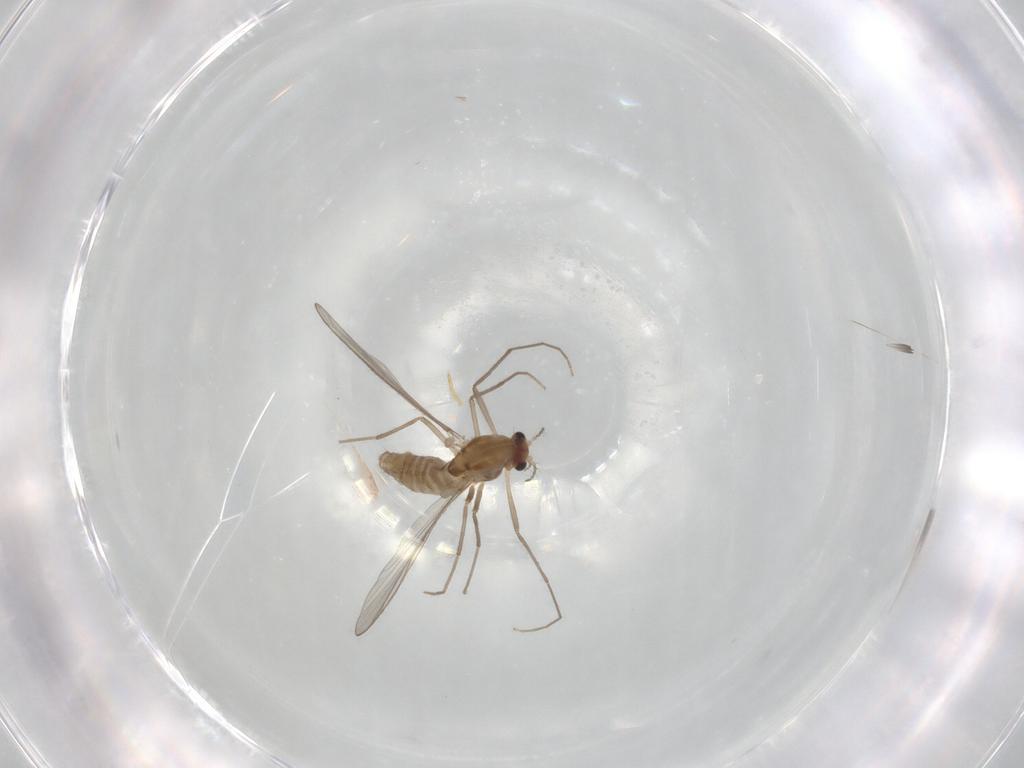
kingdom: Animalia
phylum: Arthropoda
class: Insecta
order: Diptera
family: Chironomidae
